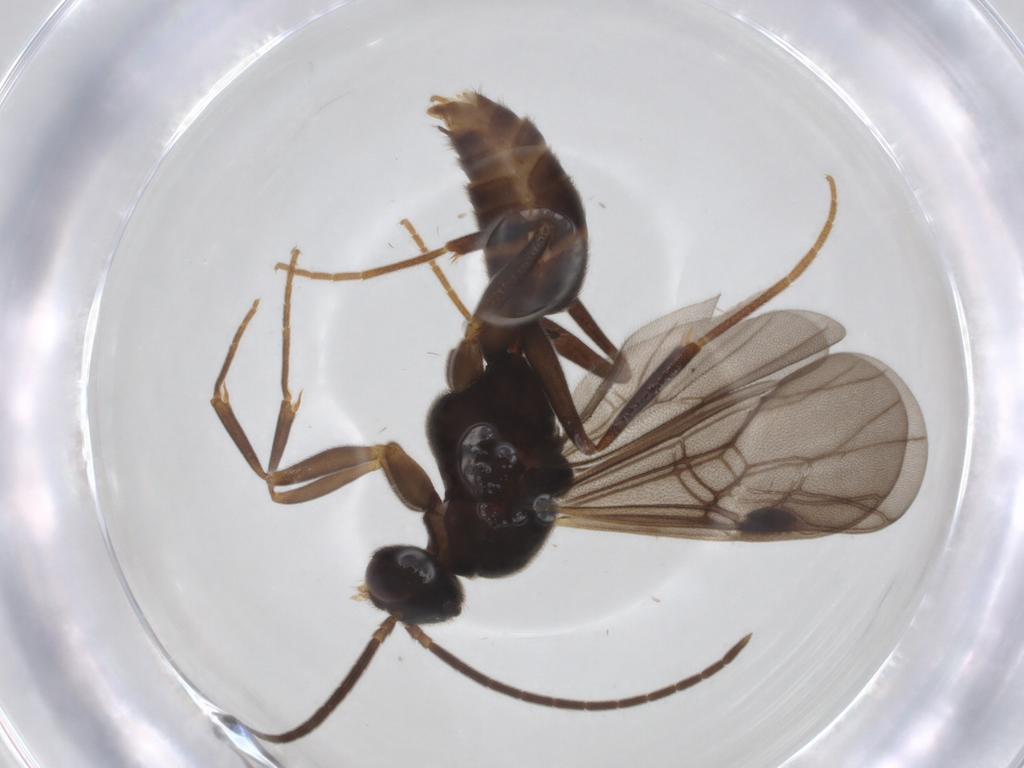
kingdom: Animalia
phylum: Arthropoda
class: Insecta
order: Hymenoptera
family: Formicidae
